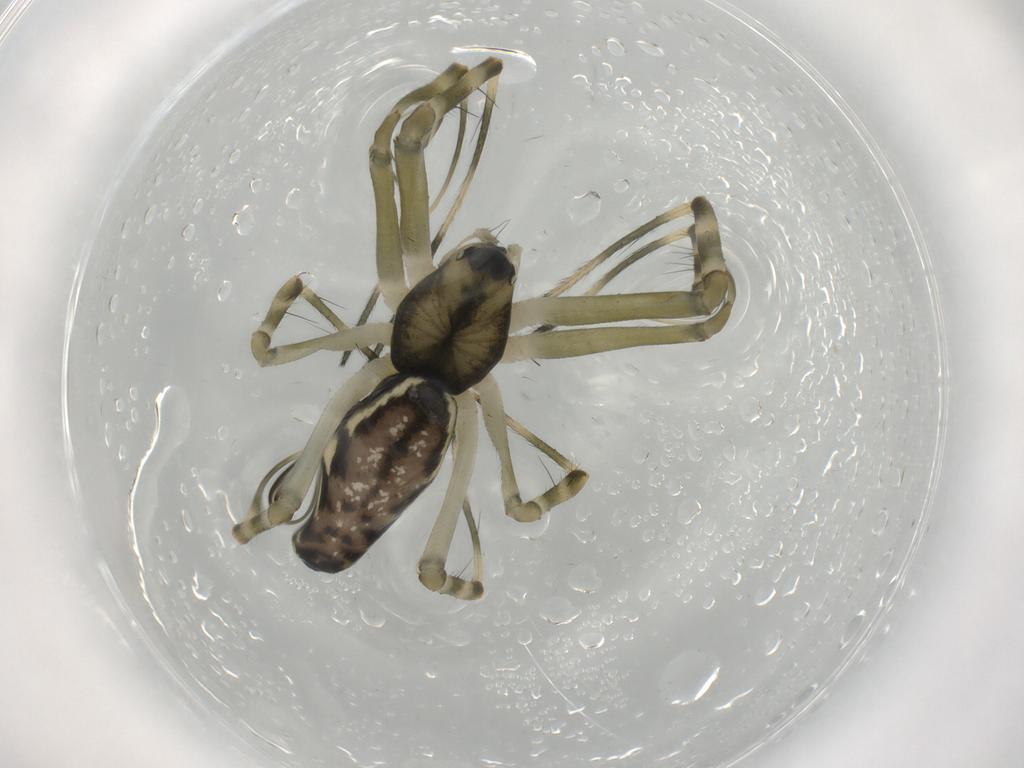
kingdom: Animalia
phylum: Arthropoda
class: Arachnida
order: Araneae
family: Linyphiidae
